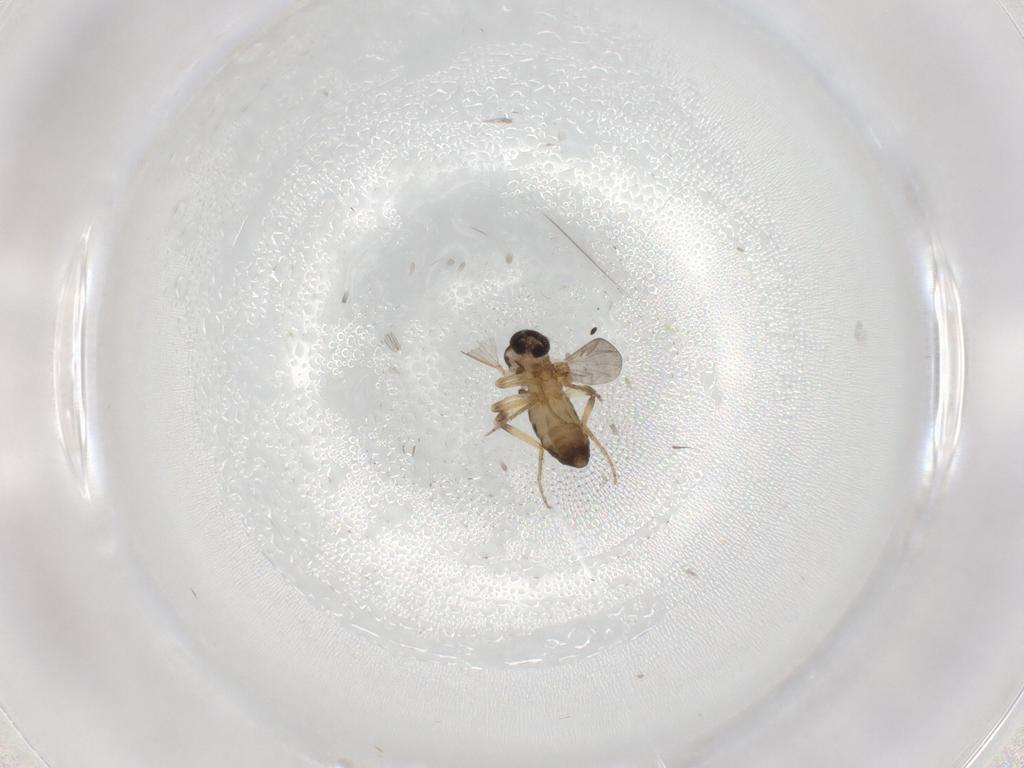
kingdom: Animalia
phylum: Arthropoda
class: Insecta
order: Diptera
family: Ceratopogonidae
